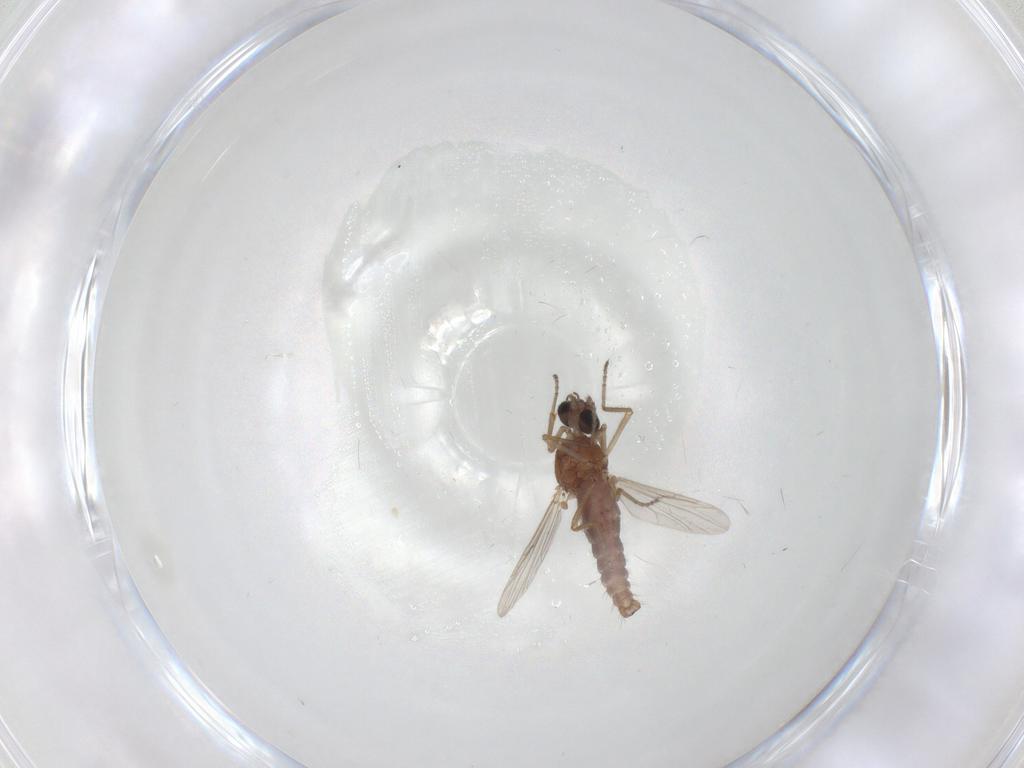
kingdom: Animalia
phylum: Arthropoda
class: Insecta
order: Diptera
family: Ceratopogonidae
